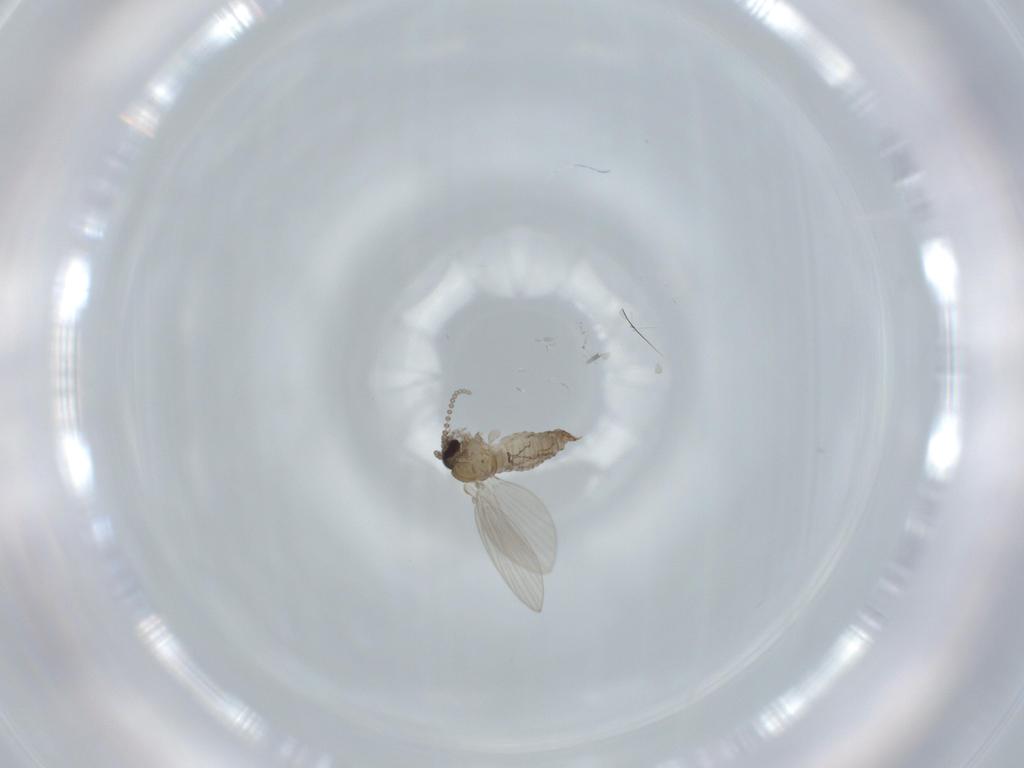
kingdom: Animalia
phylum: Arthropoda
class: Insecta
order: Diptera
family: Psychodidae
